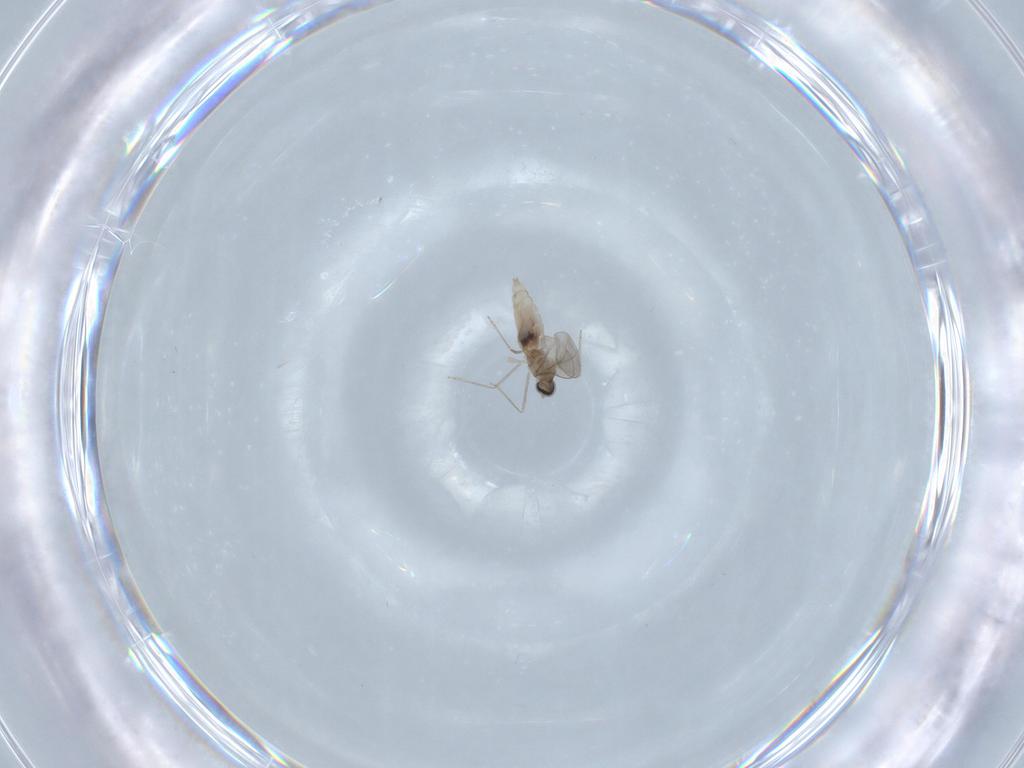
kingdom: Animalia
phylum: Arthropoda
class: Insecta
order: Diptera
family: Cecidomyiidae
